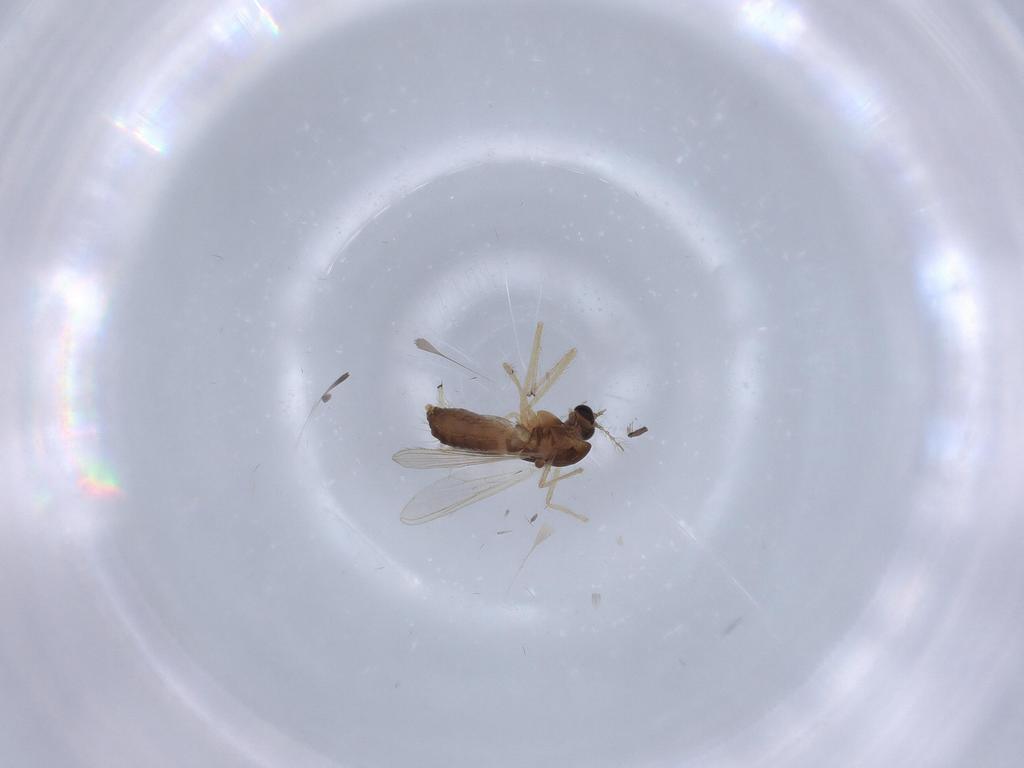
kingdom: Animalia
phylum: Arthropoda
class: Insecta
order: Diptera
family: Chironomidae
